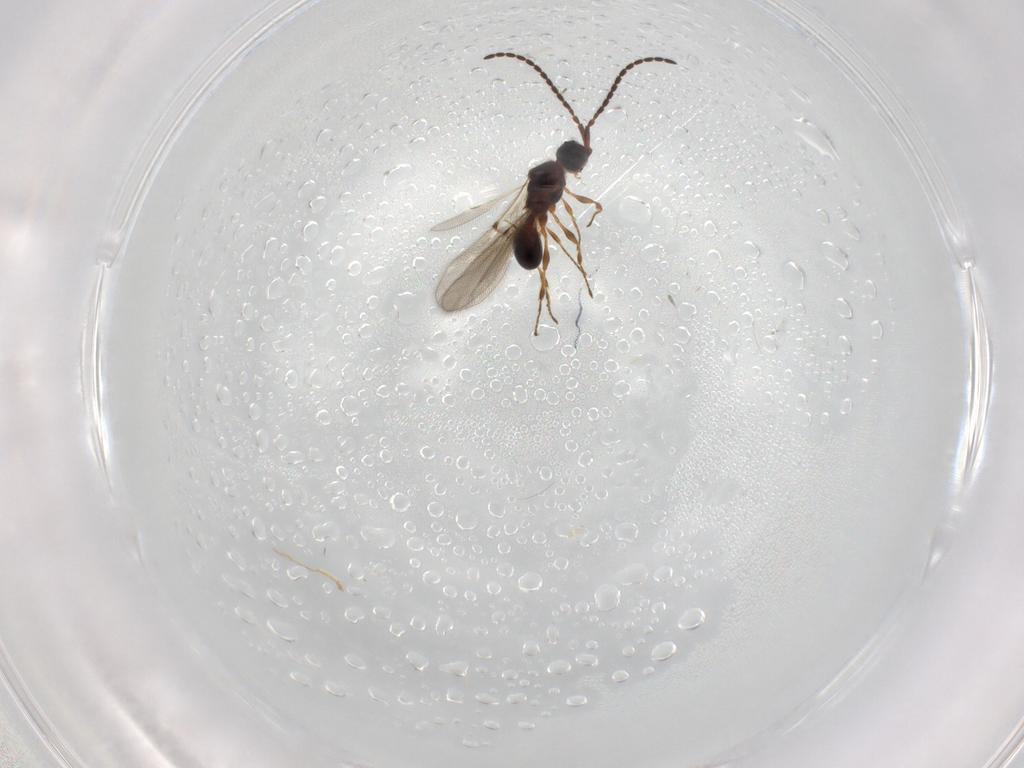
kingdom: Animalia
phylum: Arthropoda
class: Insecta
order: Hymenoptera
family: Diapriidae
